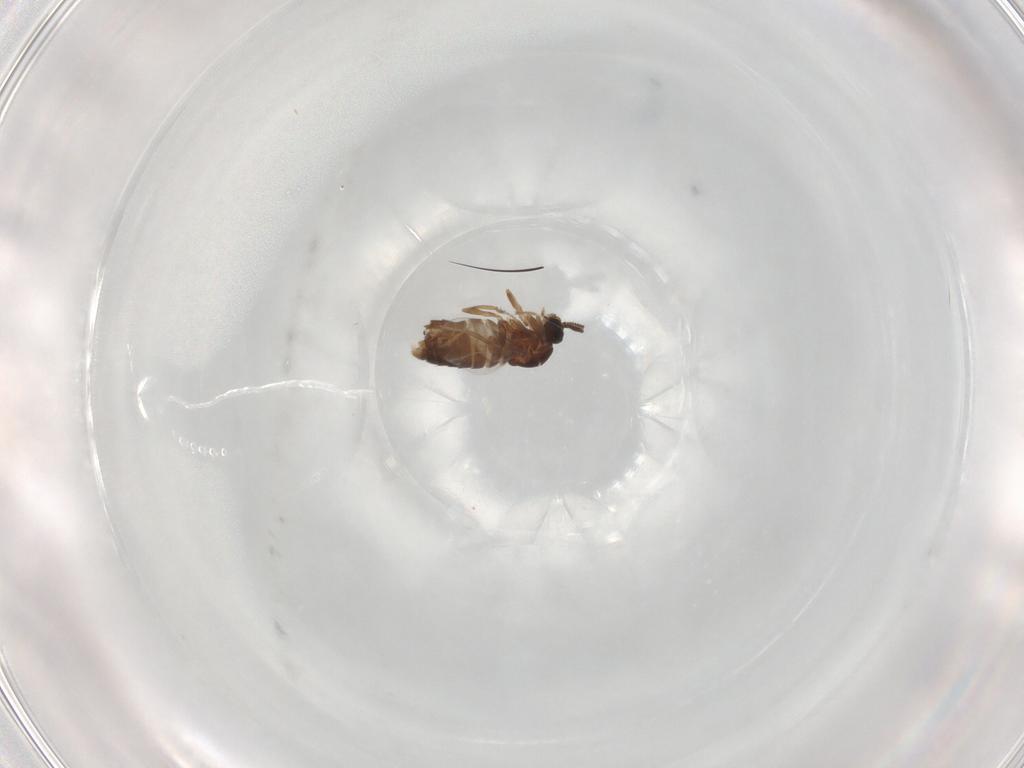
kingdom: Animalia
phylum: Arthropoda
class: Insecta
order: Diptera
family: Scatopsidae
